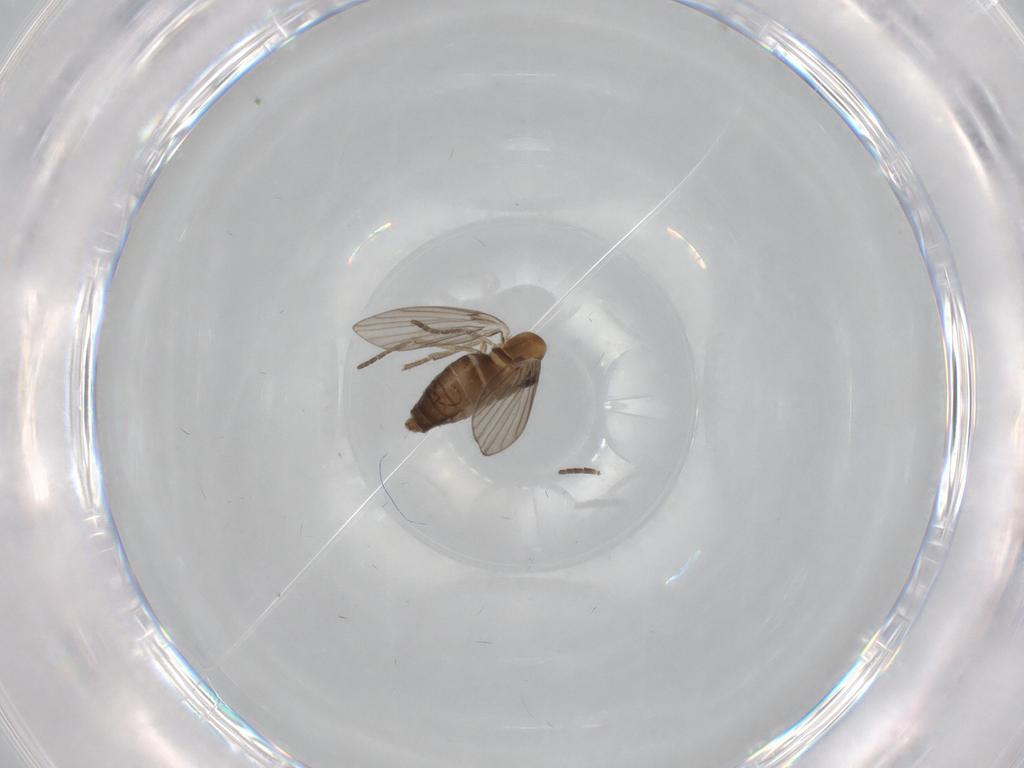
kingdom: Animalia
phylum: Arthropoda
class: Insecta
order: Diptera
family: Psychodidae
